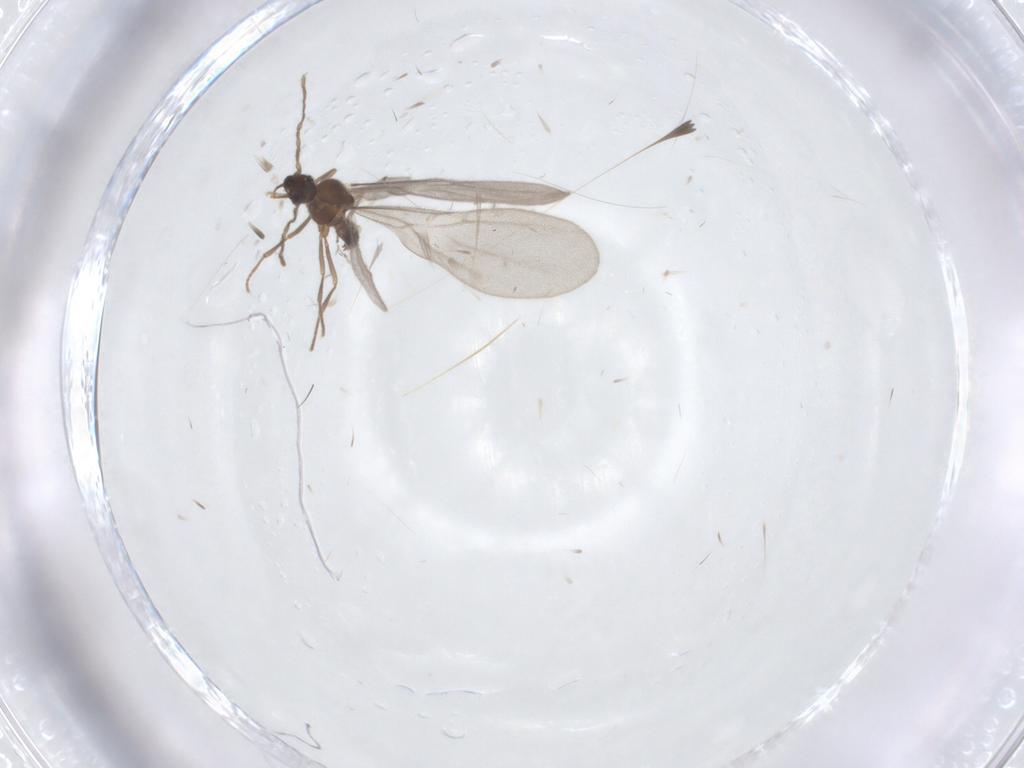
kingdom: Animalia
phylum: Arthropoda
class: Insecta
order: Hymenoptera
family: Formicidae
